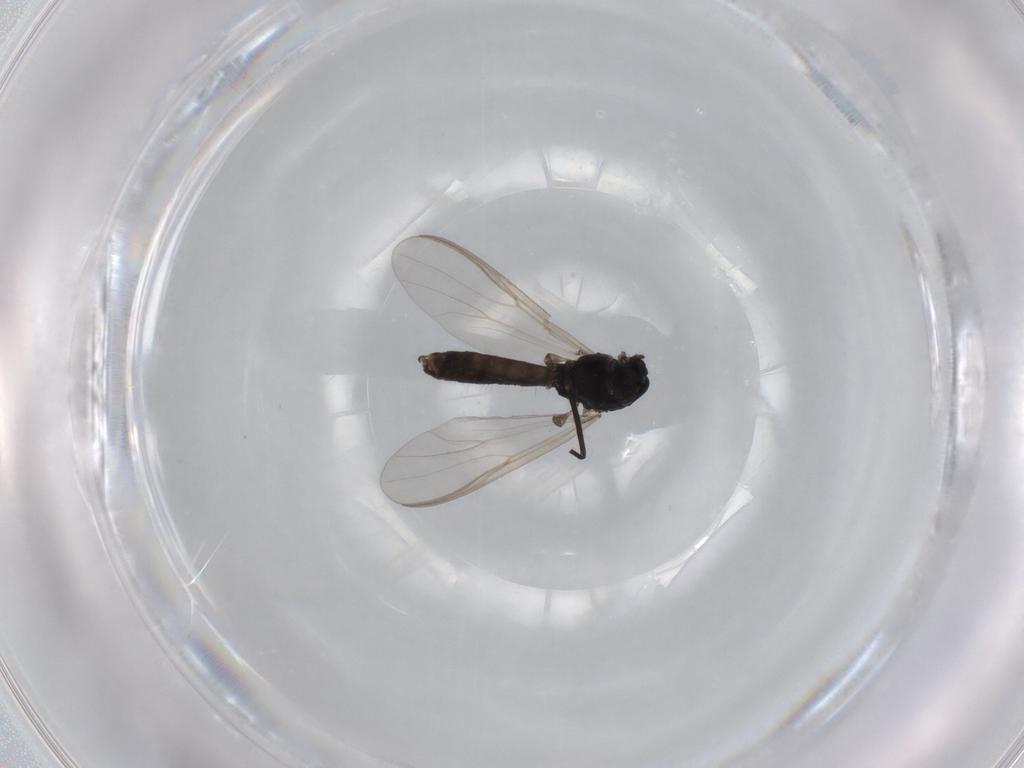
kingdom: Animalia
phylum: Arthropoda
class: Insecta
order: Diptera
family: Chironomidae
